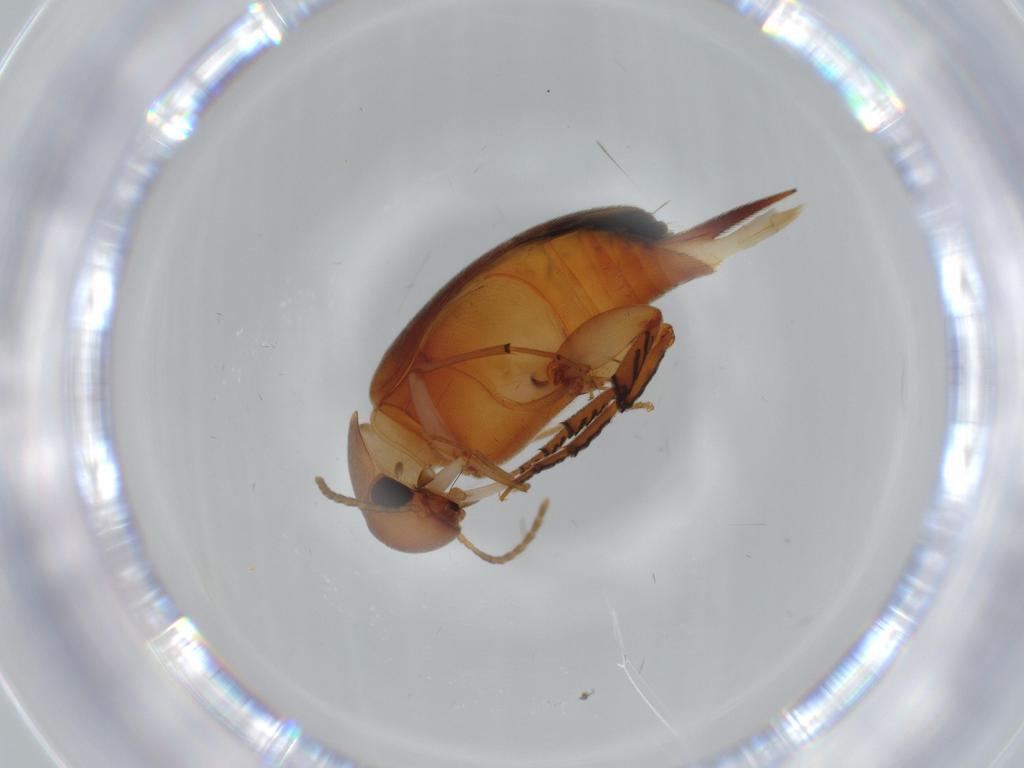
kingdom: Animalia
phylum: Arthropoda
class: Insecta
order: Coleoptera
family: Mordellidae
